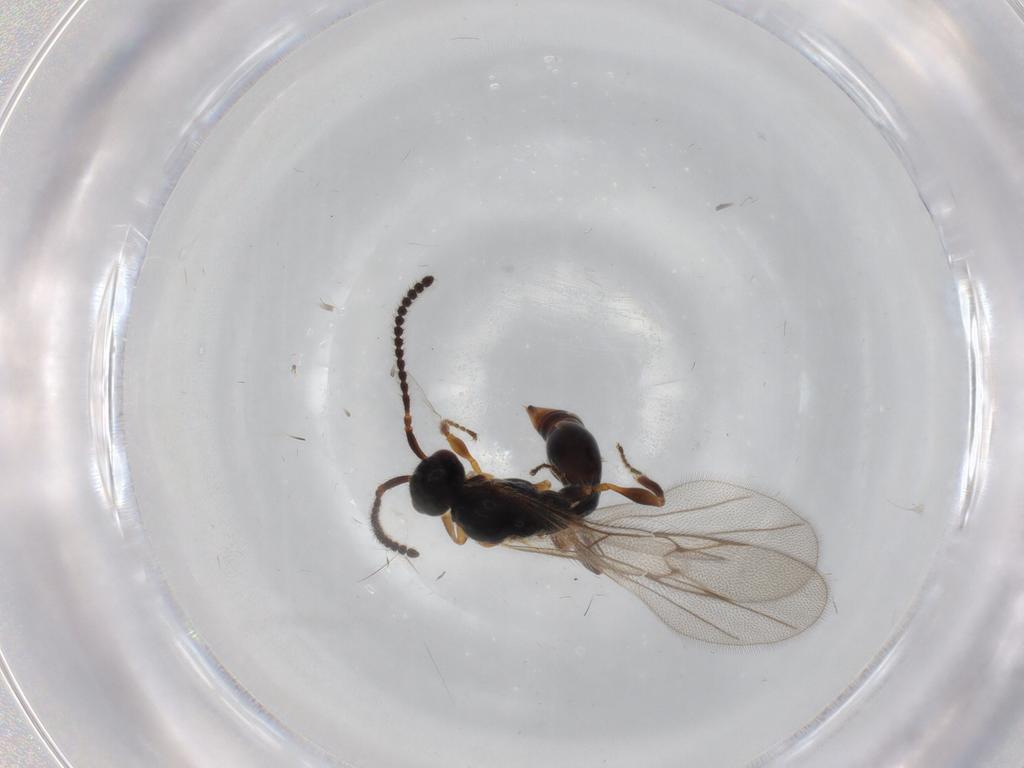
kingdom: Animalia
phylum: Arthropoda
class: Insecta
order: Hymenoptera
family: Diapriidae
